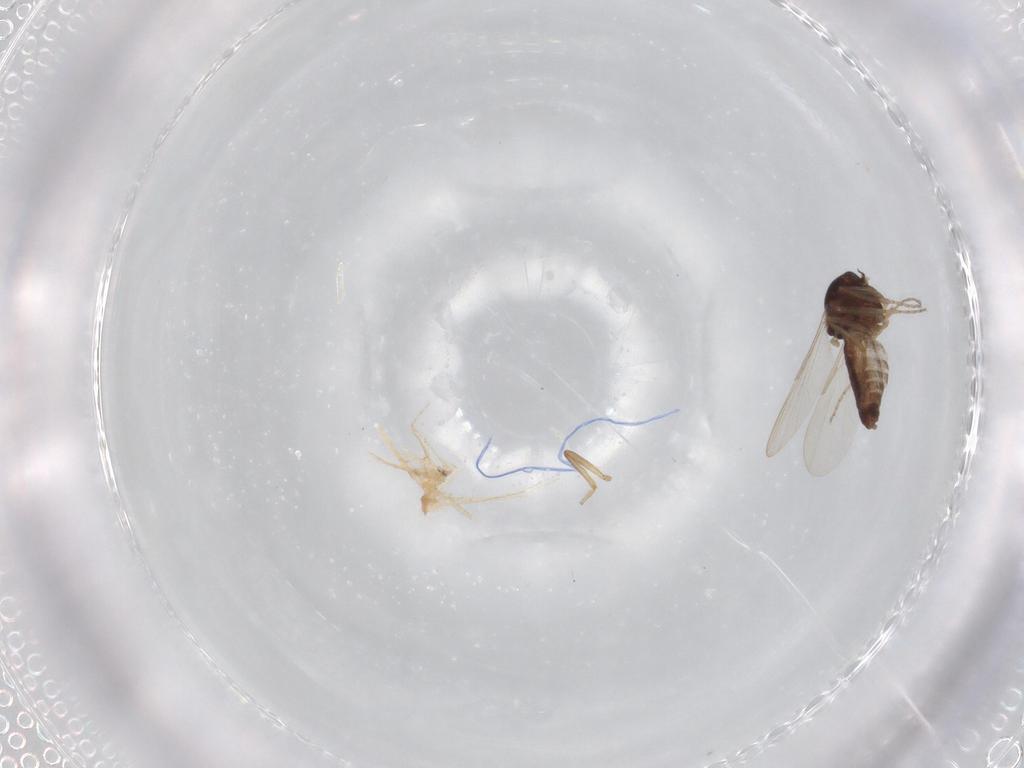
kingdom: Animalia
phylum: Arthropoda
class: Insecta
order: Diptera
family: Ceratopogonidae
